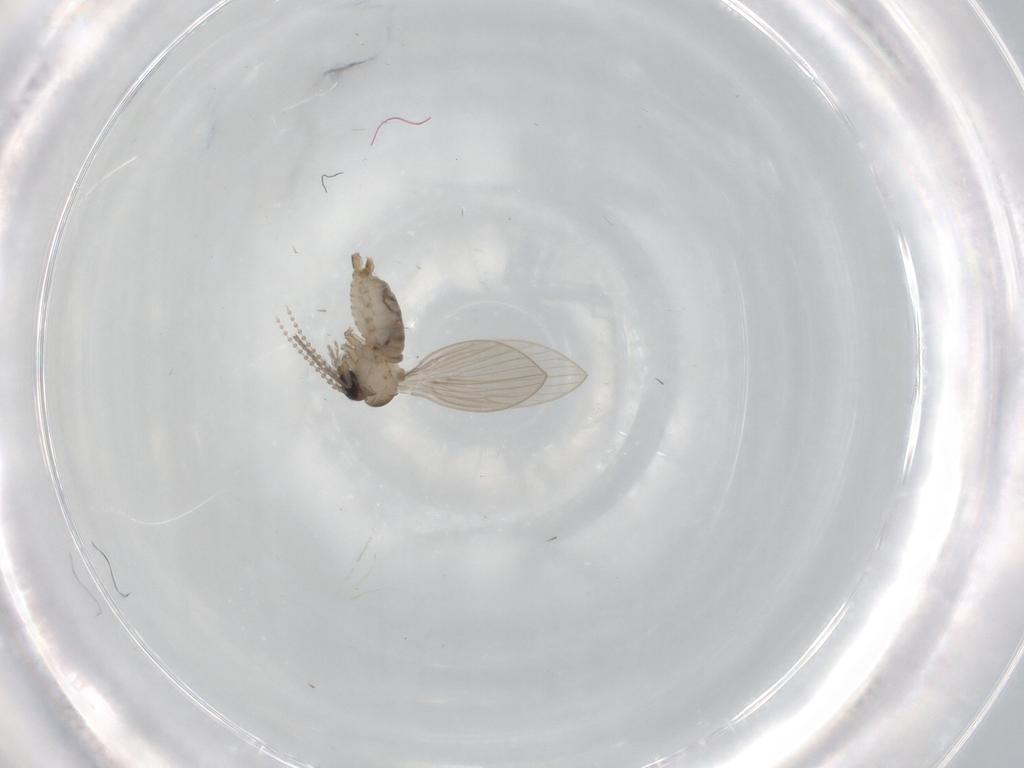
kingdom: Animalia
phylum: Arthropoda
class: Insecta
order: Diptera
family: Psychodidae
